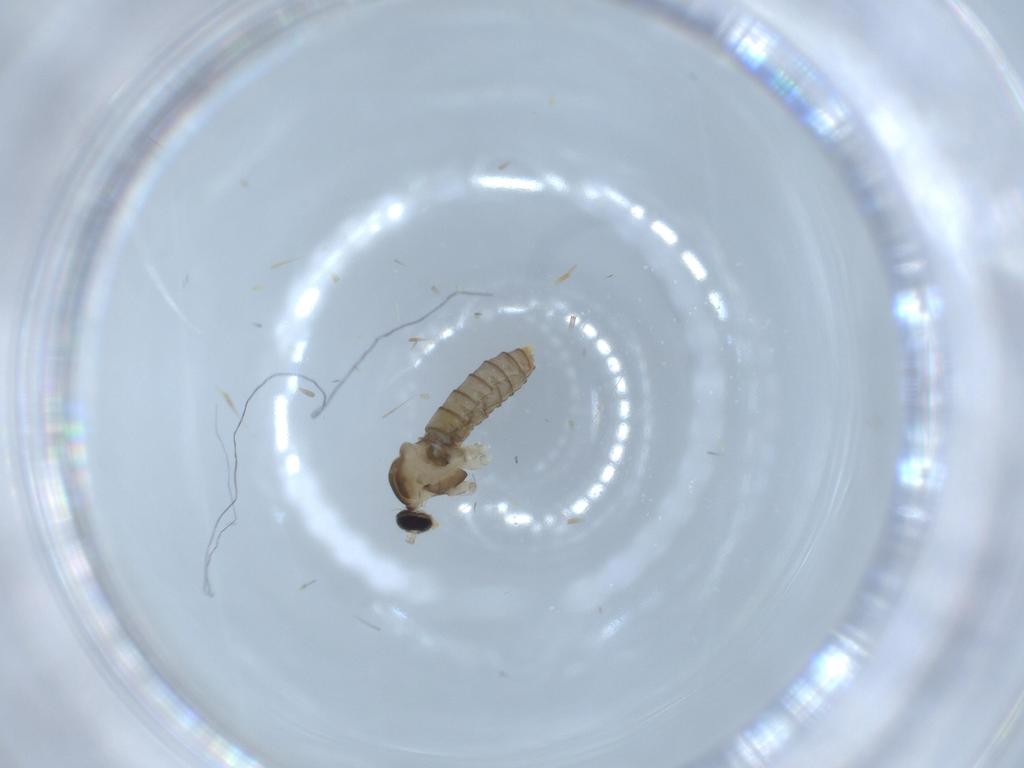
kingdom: Animalia
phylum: Arthropoda
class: Insecta
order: Diptera
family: Cecidomyiidae
